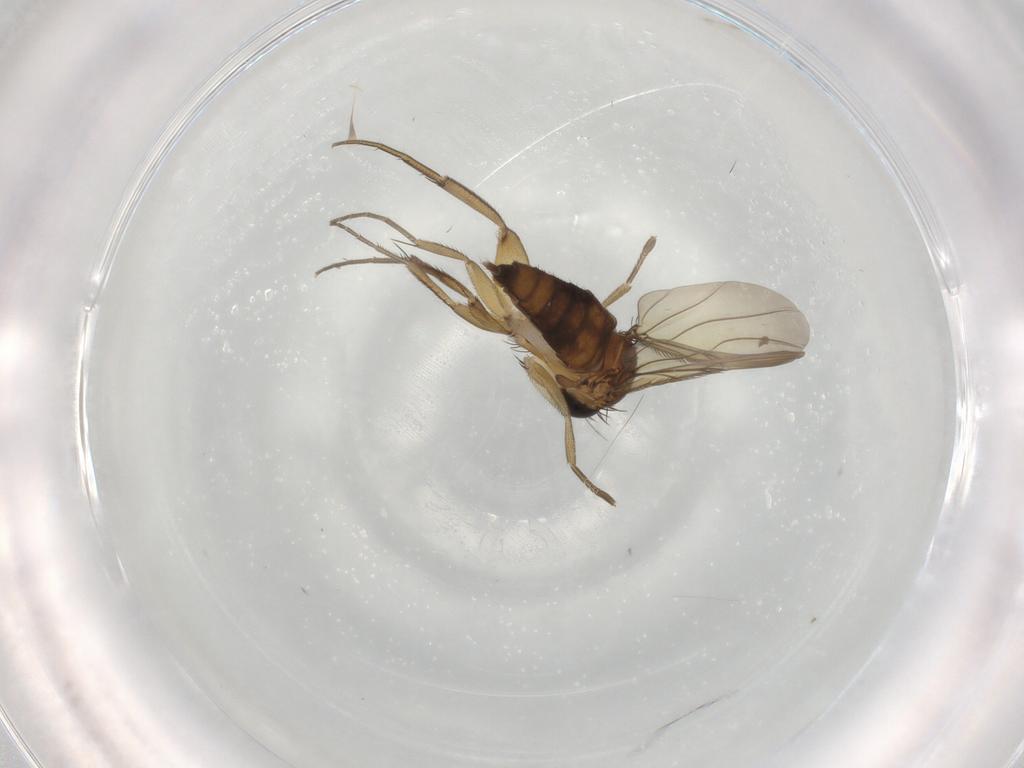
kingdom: Animalia
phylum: Arthropoda
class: Insecta
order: Diptera
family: Phoridae
